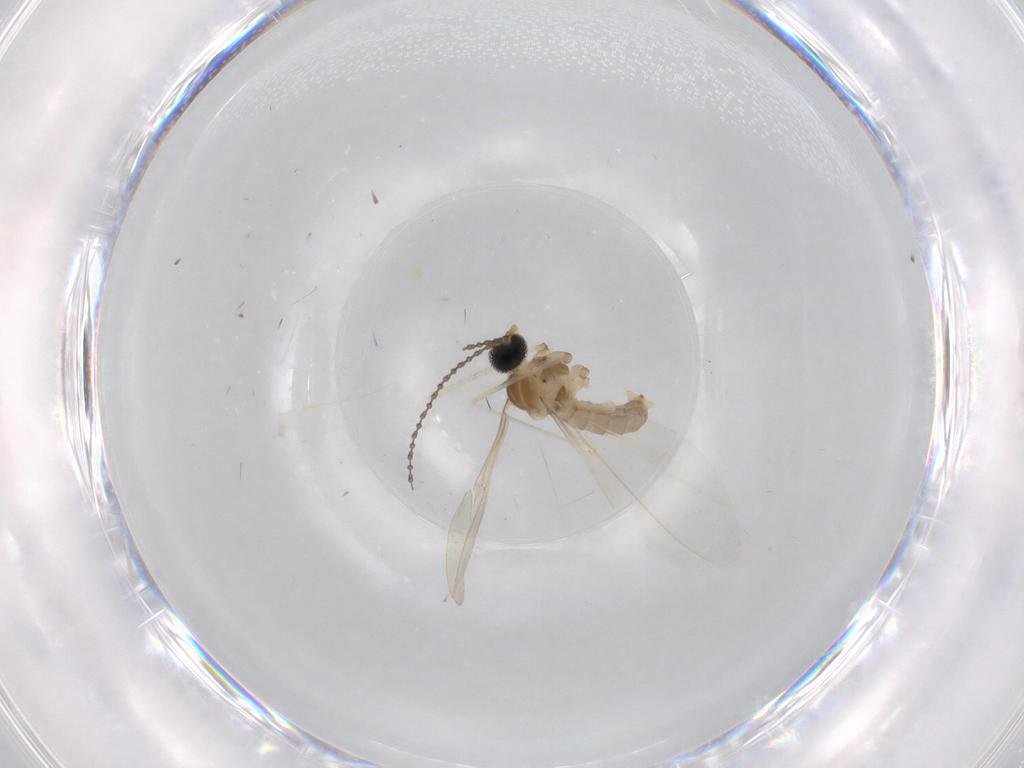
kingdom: Animalia
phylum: Arthropoda
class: Insecta
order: Diptera
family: Cecidomyiidae
